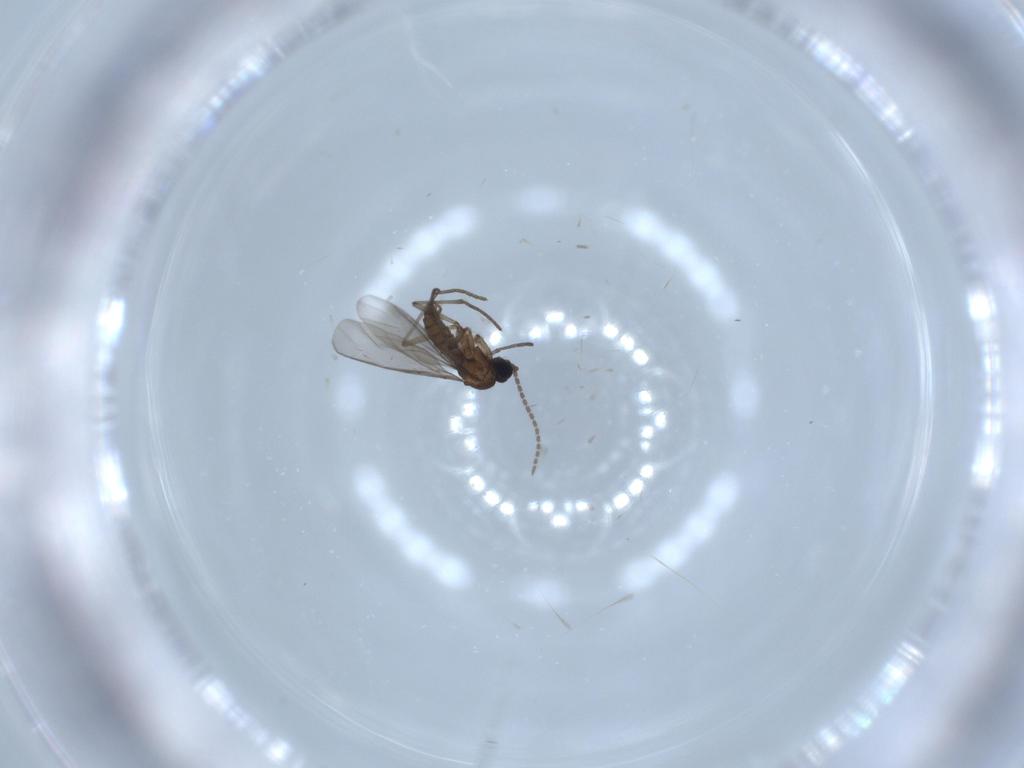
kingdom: Animalia
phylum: Arthropoda
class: Insecta
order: Diptera
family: Sciaridae
